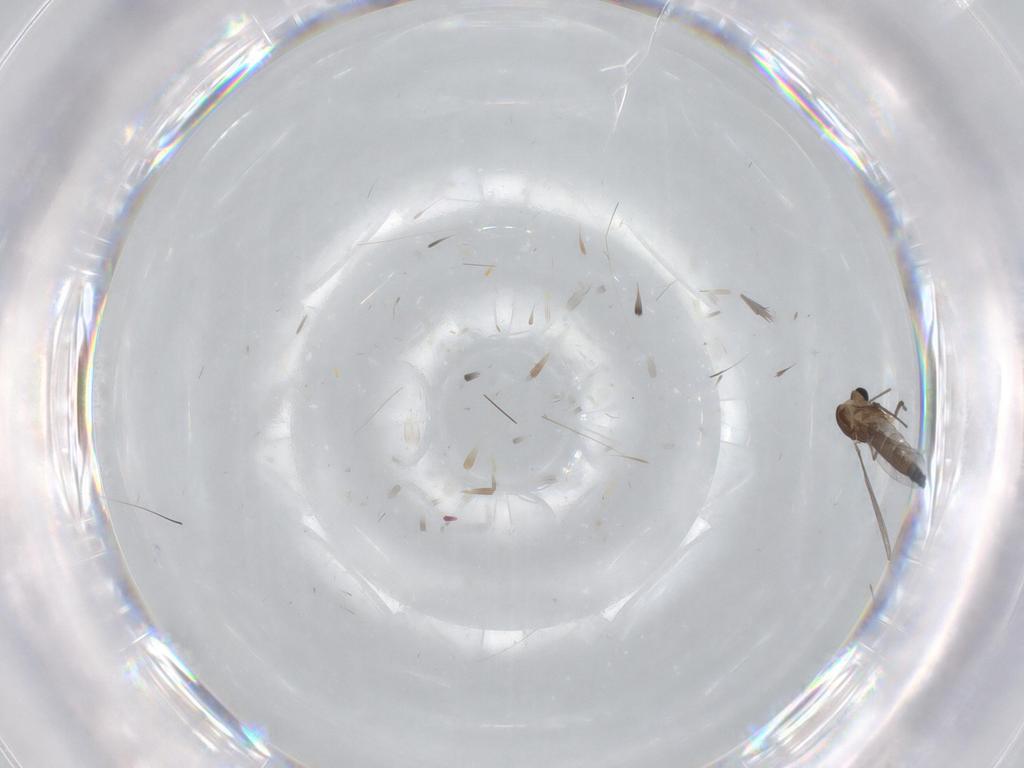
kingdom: Animalia
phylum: Arthropoda
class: Insecta
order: Diptera
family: Chironomidae
